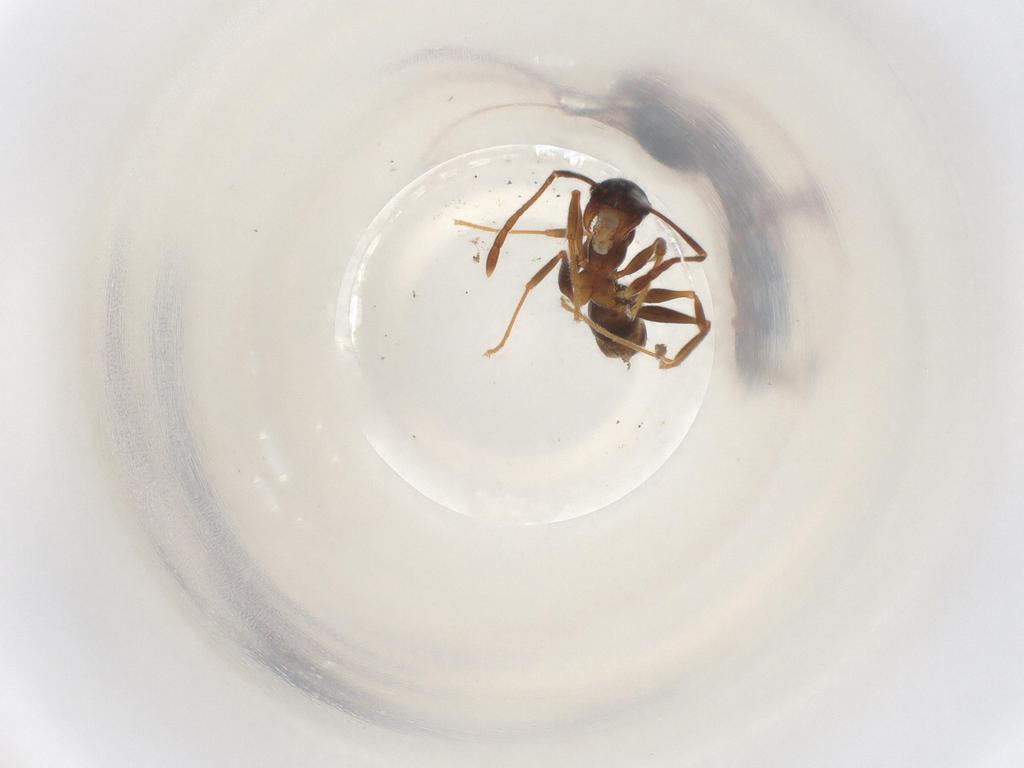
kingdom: Animalia
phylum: Arthropoda
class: Insecta
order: Hymenoptera
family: Formicidae
